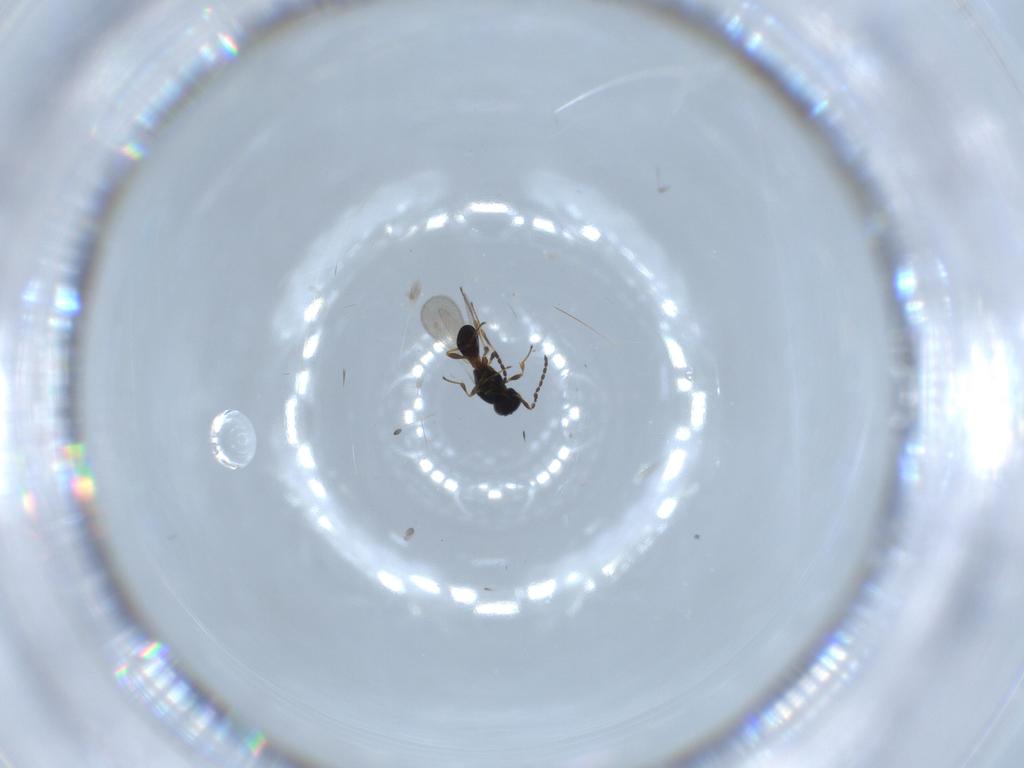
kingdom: Animalia
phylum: Arthropoda
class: Insecta
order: Hymenoptera
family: Platygastridae
